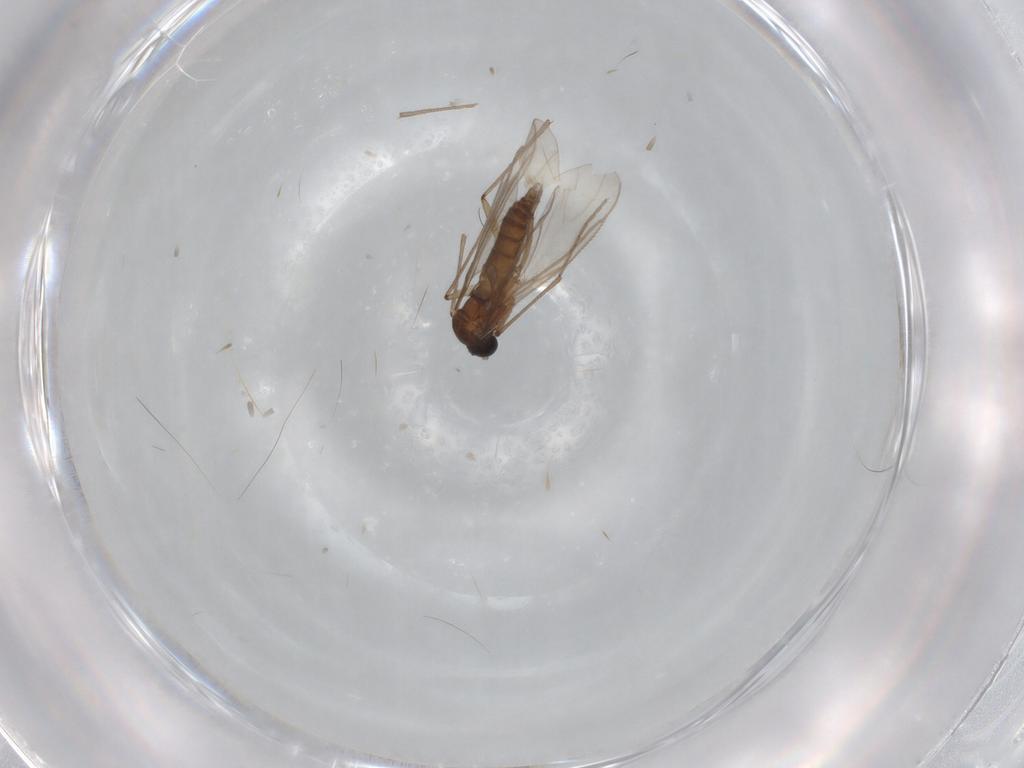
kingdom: Animalia
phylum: Arthropoda
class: Insecta
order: Diptera
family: Sciaridae
